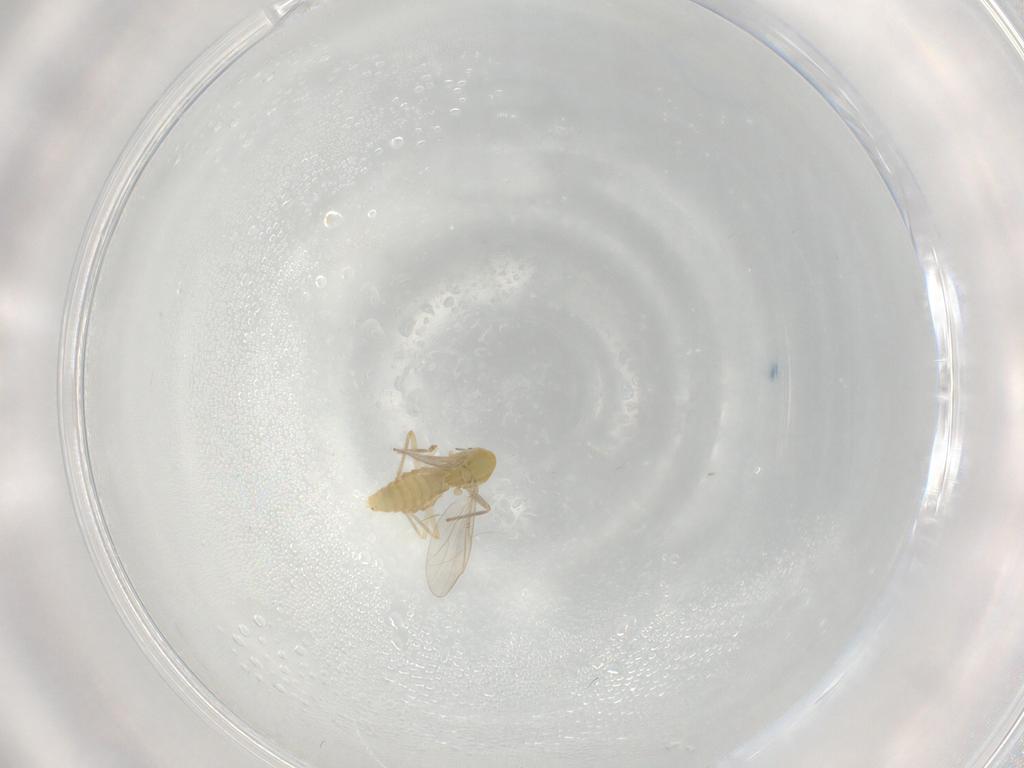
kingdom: Animalia
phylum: Arthropoda
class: Insecta
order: Diptera
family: Chironomidae
